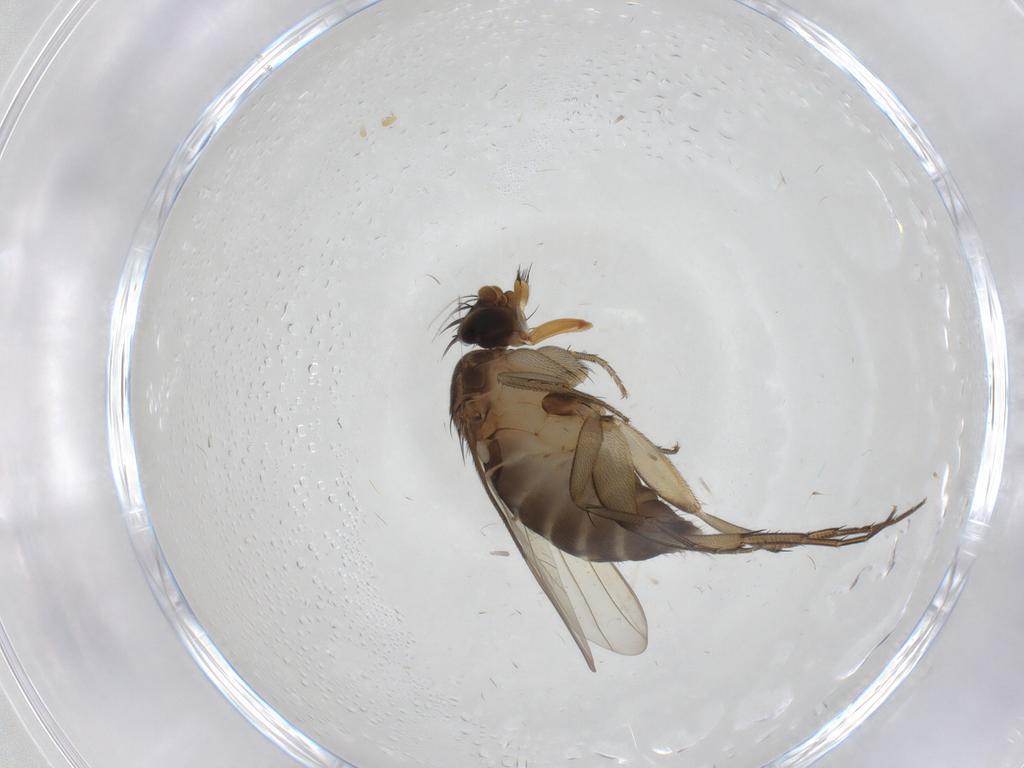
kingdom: Animalia
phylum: Arthropoda
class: Insecta
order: Diptera
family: Phoridae
